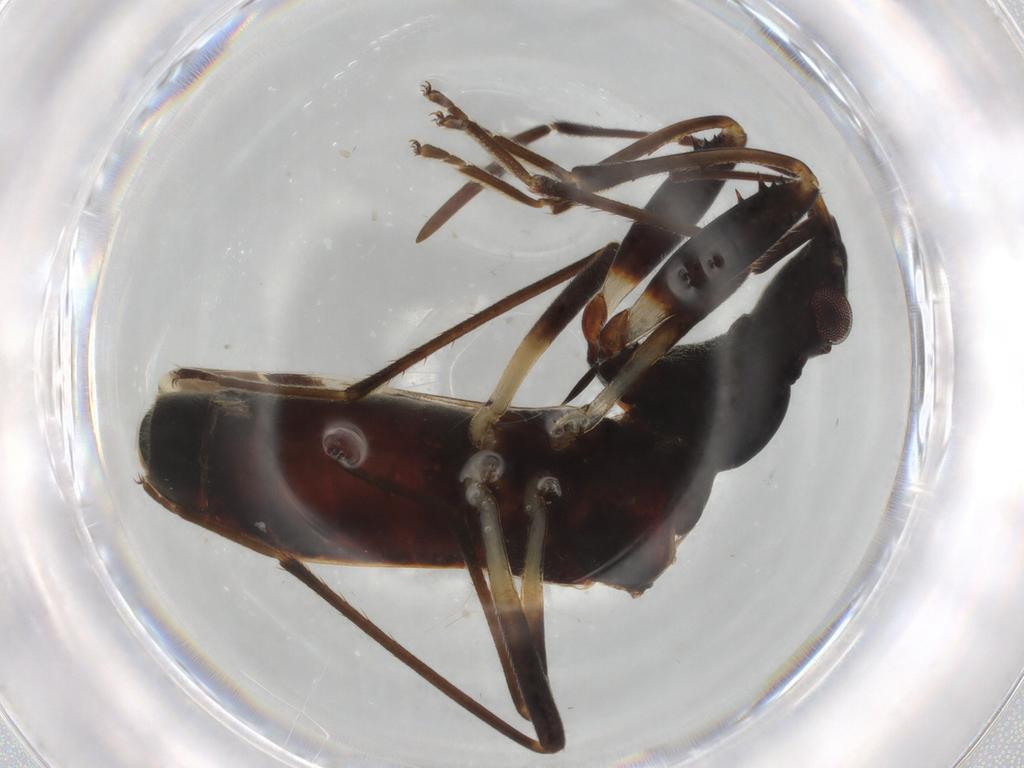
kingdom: Animalia
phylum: Arthropoda
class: Insecta
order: Hemiptera
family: Rhyparochromidae
